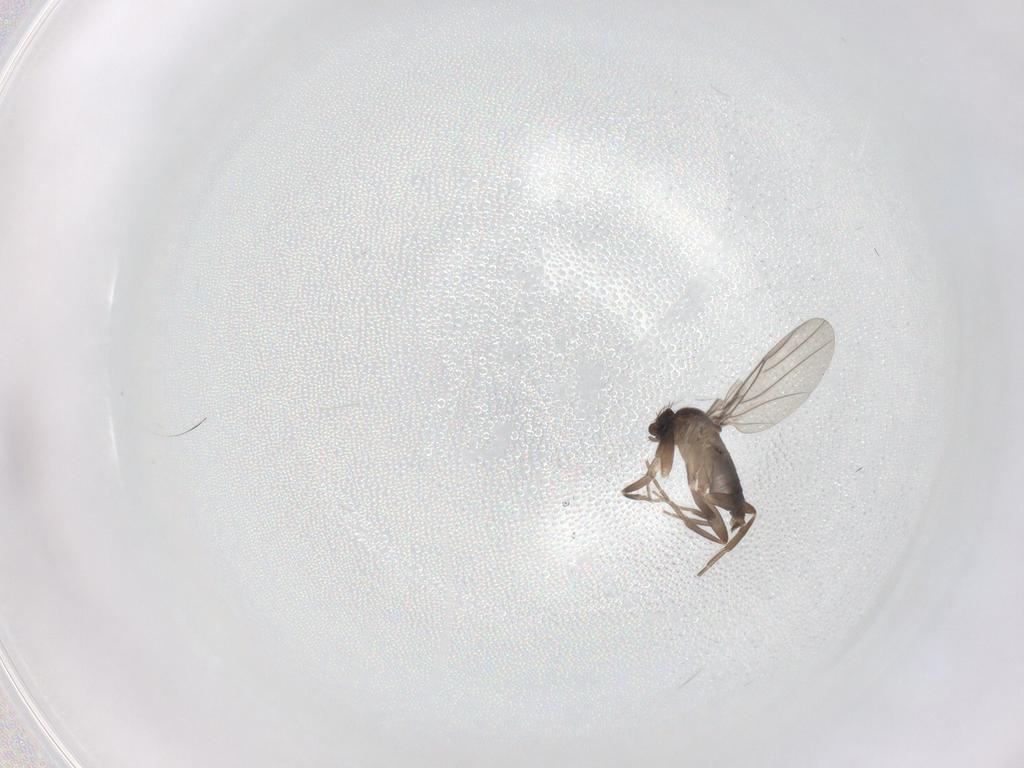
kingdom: Animalia
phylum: Arthropoda
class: Insecta
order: Diptera
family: Ceratopogonidae
